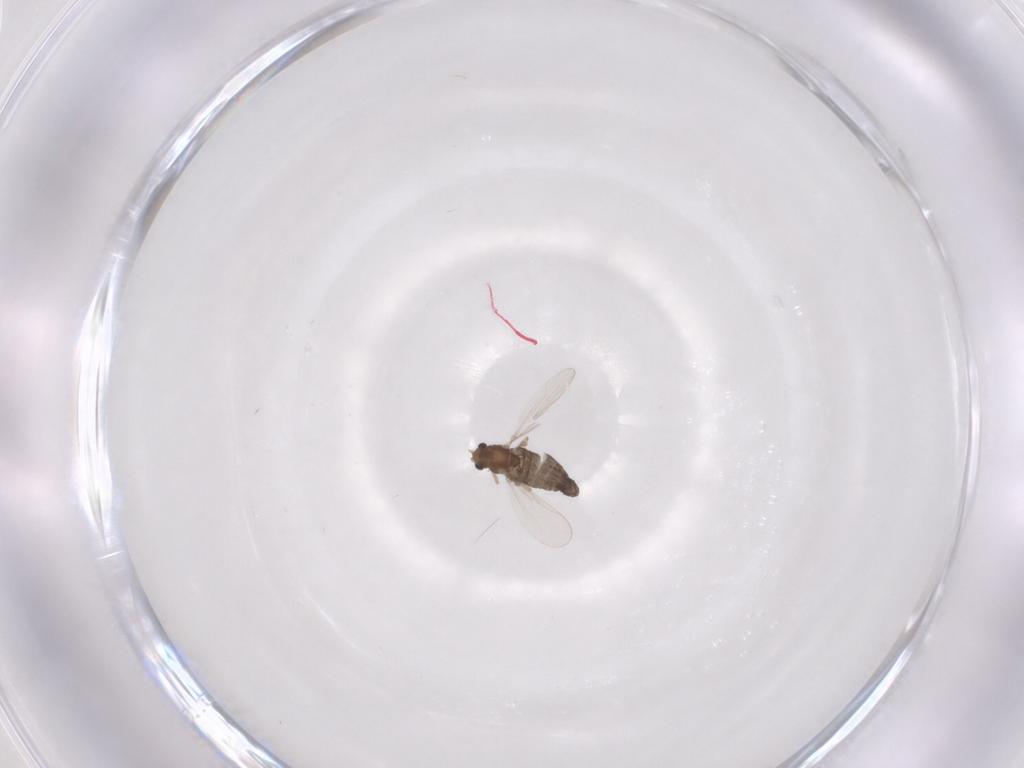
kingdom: Animalia
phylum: Arthropoda
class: Insecta
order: Diptera
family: Chironomidae
